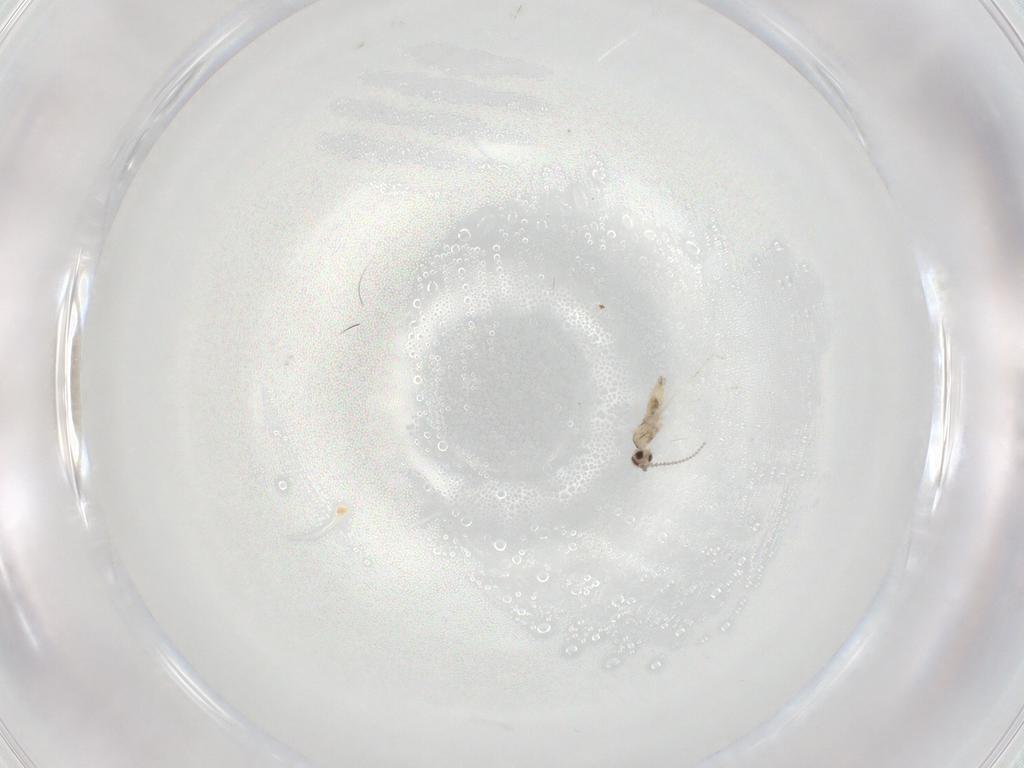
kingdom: Animalia
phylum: Arthropoda
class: Insecta
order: Diptera
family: Cecidomyiidae
